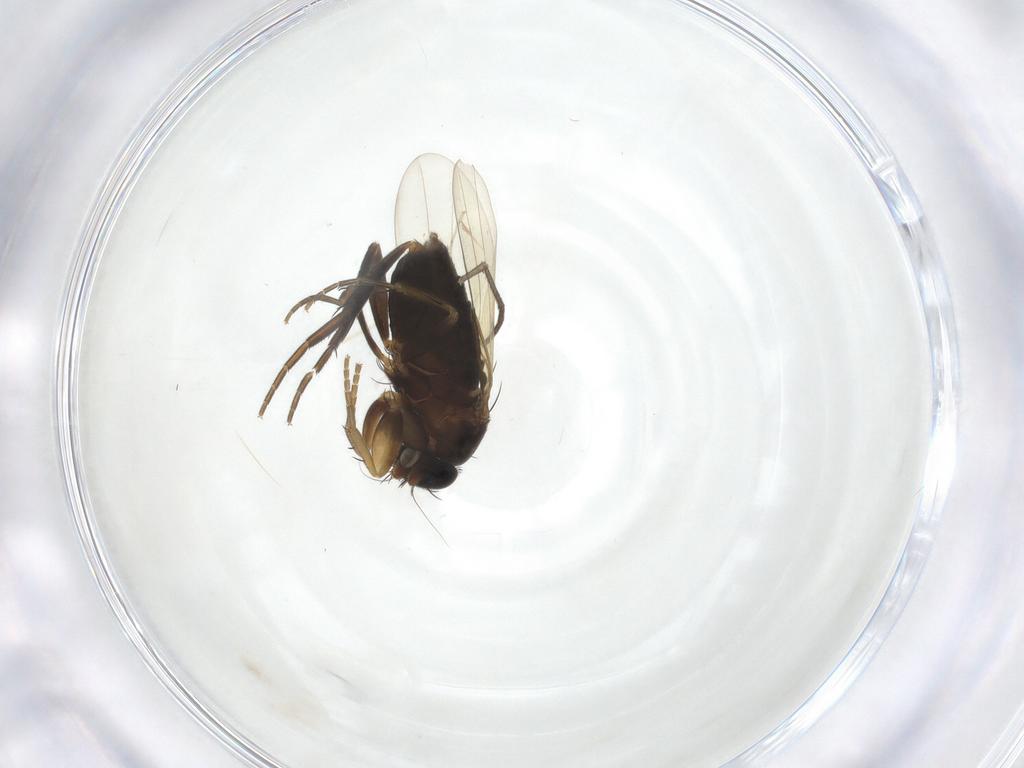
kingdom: Animalia
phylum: Arthropoda
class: Insecta
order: Diptera
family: Phoridae
